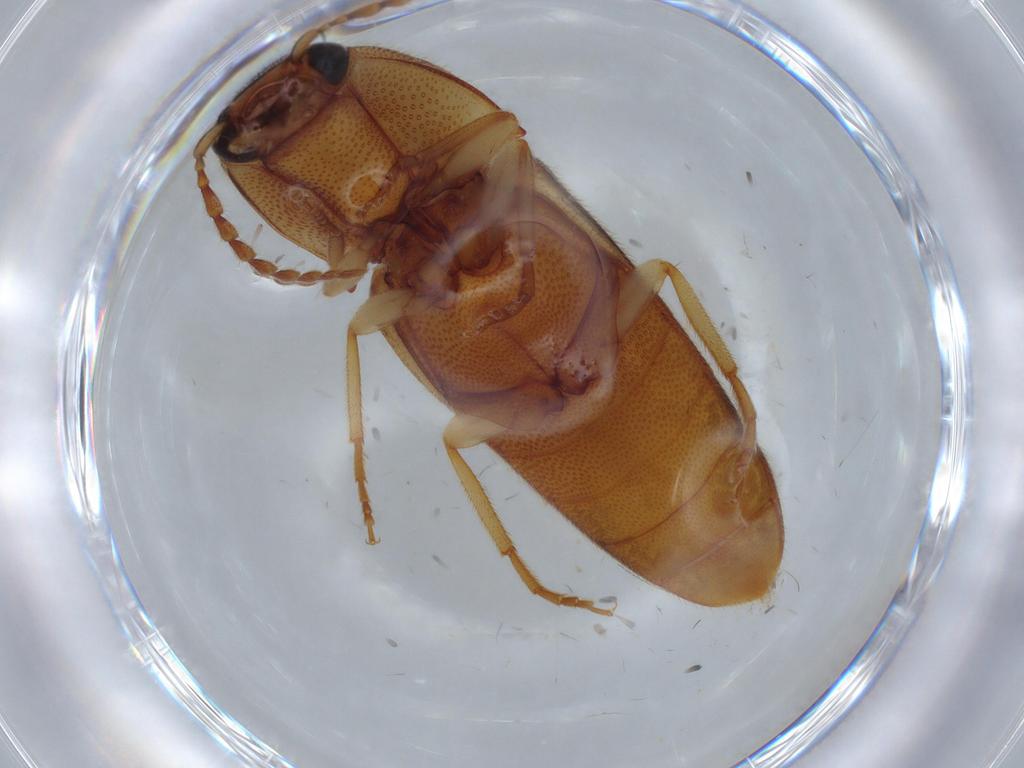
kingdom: Animalia
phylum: Arthropoda
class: Insecta
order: Coleoptera
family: Elateridae
